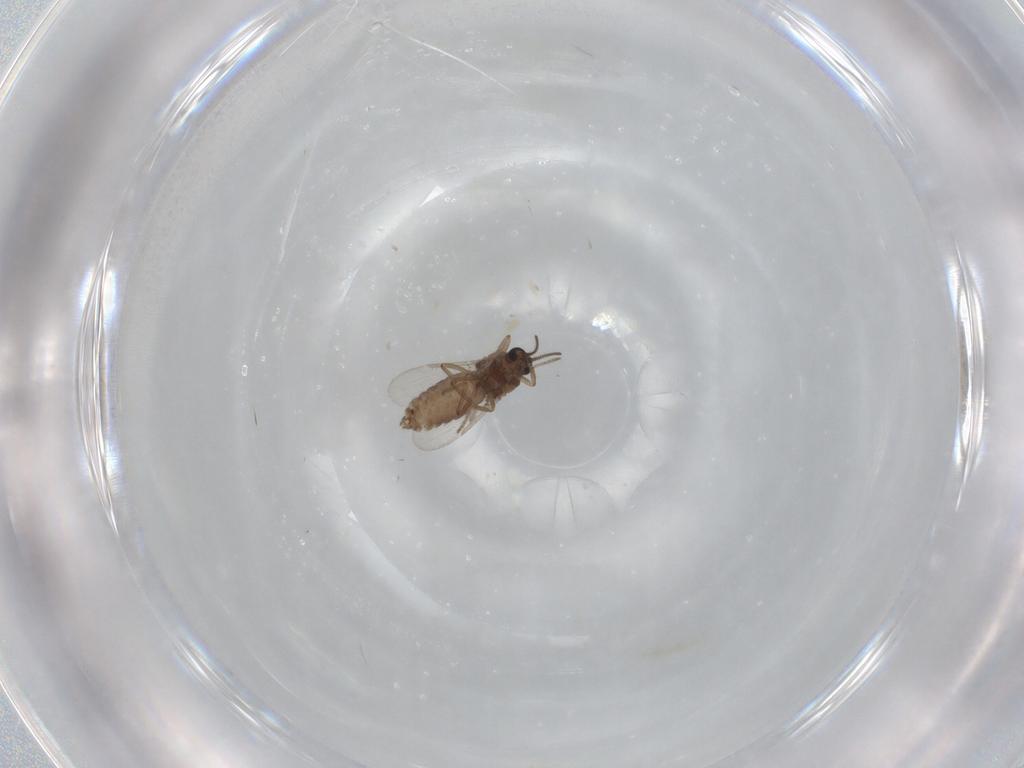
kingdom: Animalia
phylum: Arthropoda
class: Insecta
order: Diptera
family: Ceratopogonidae
